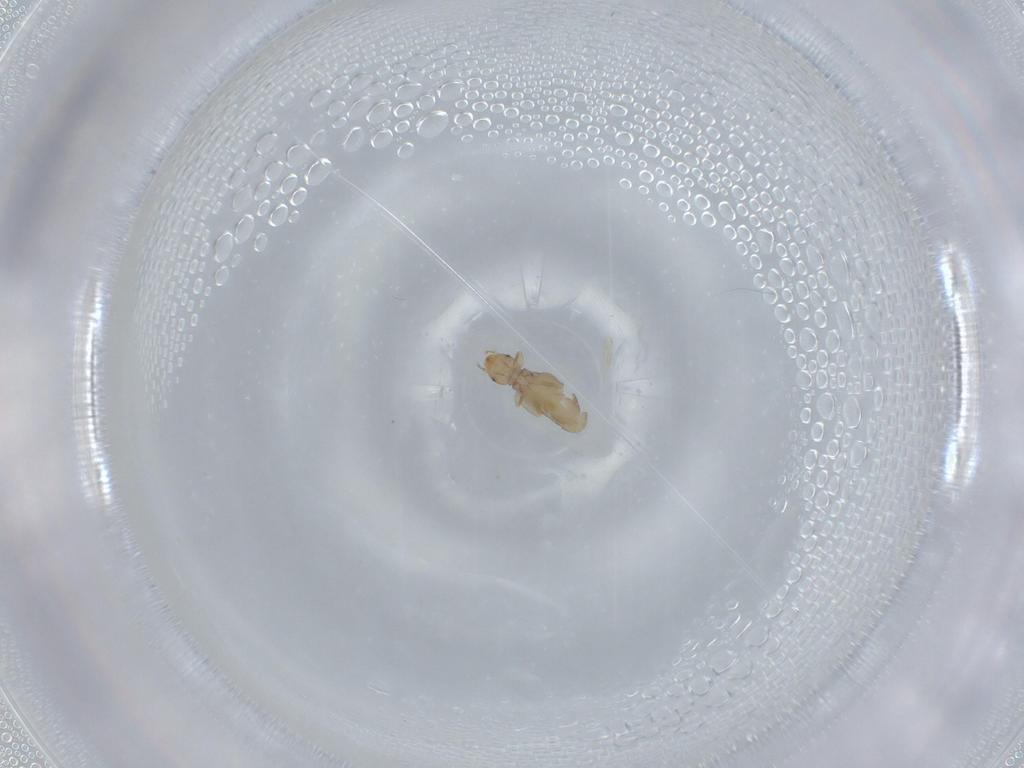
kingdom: Animalia
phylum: Arthropoda
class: Insecta
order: Psocodea
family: Liposcelididae
